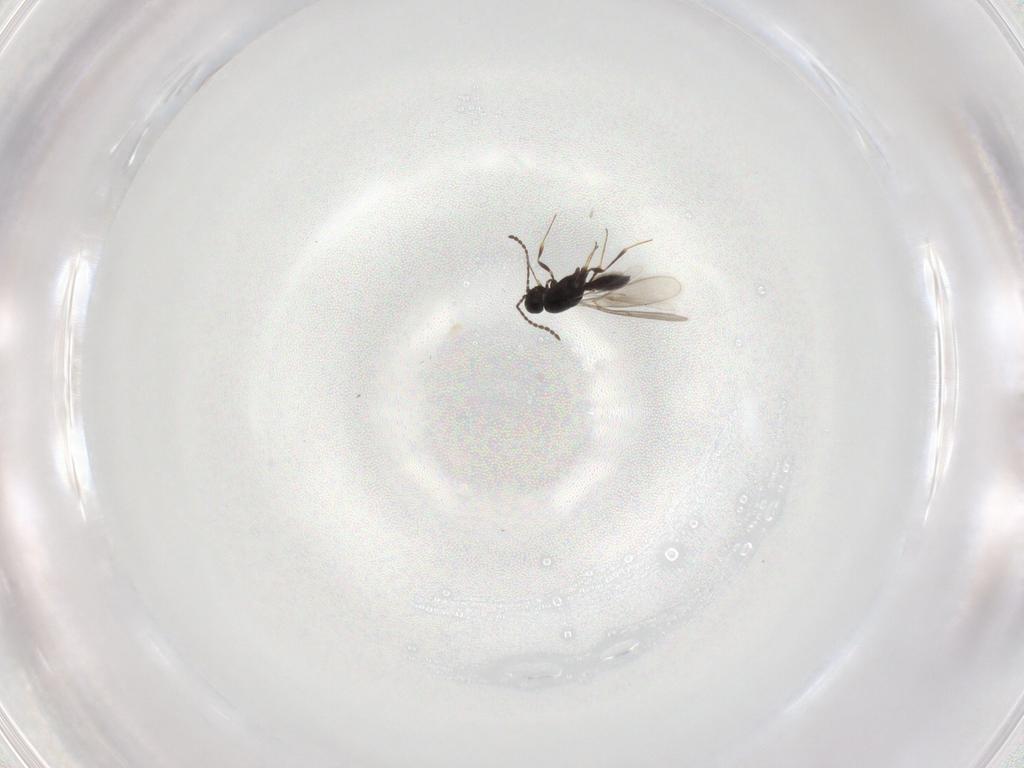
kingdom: Animalia
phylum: Arthropoda
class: Insecta
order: Hymenoptera
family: Scelionidae
